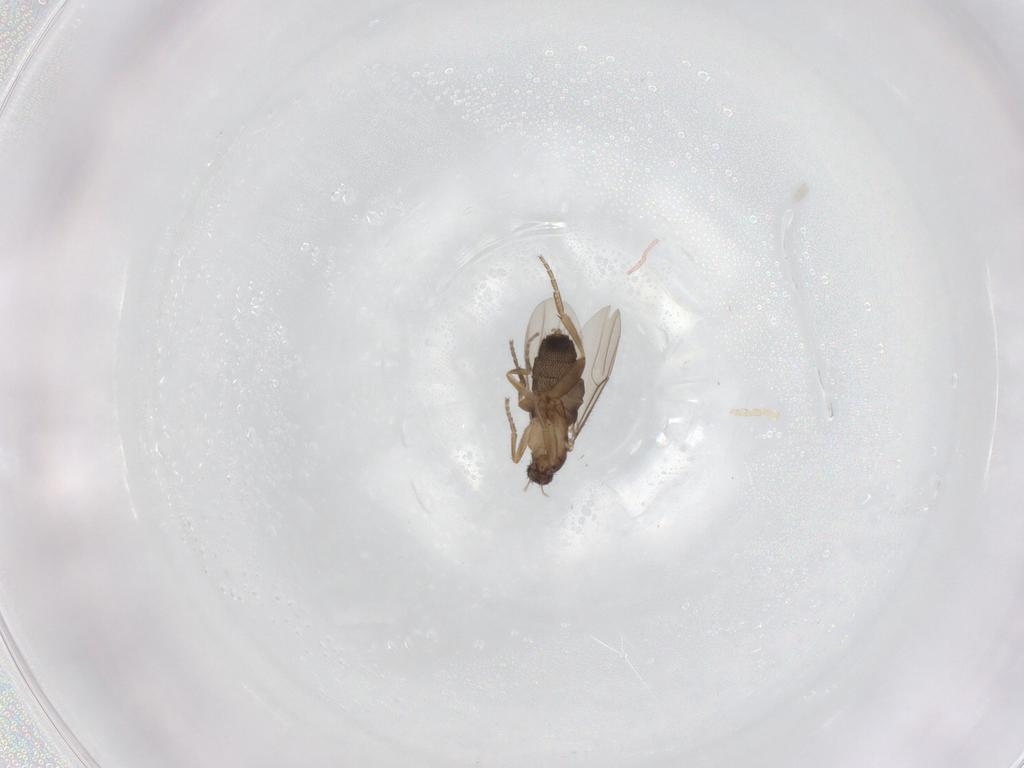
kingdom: Animalia
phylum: Arthropoda
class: Insecta
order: Diptera
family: Phoridae
